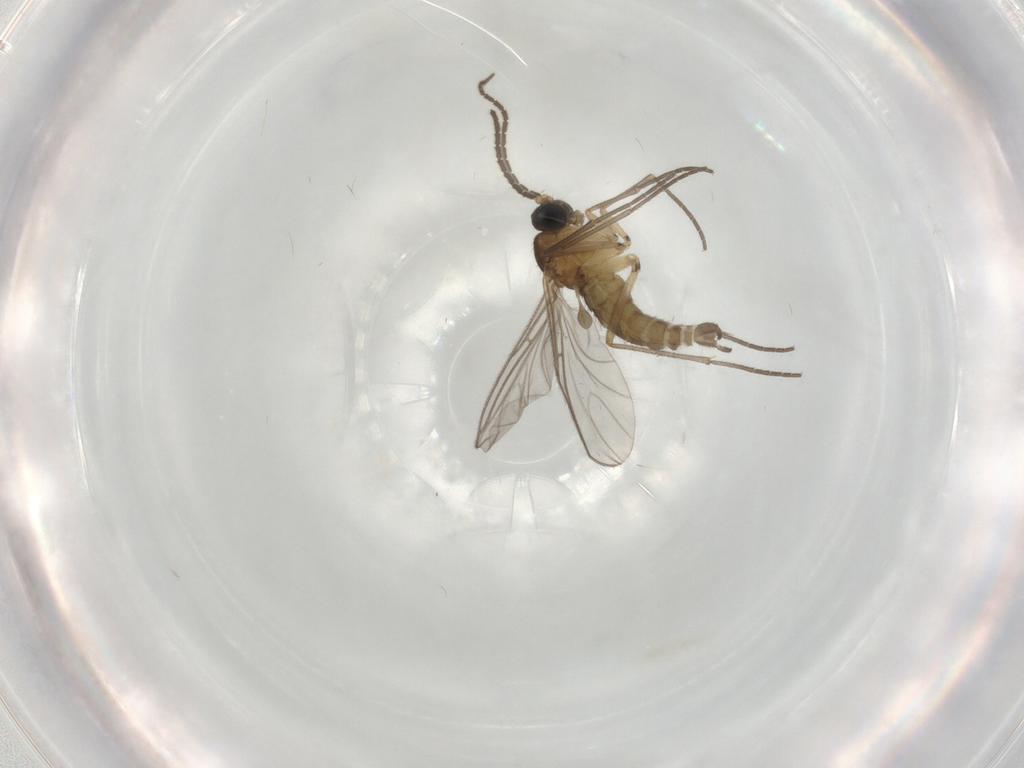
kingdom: Animalia
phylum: Arthropoda
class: Insecta
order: Diptera
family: Sciaridae
